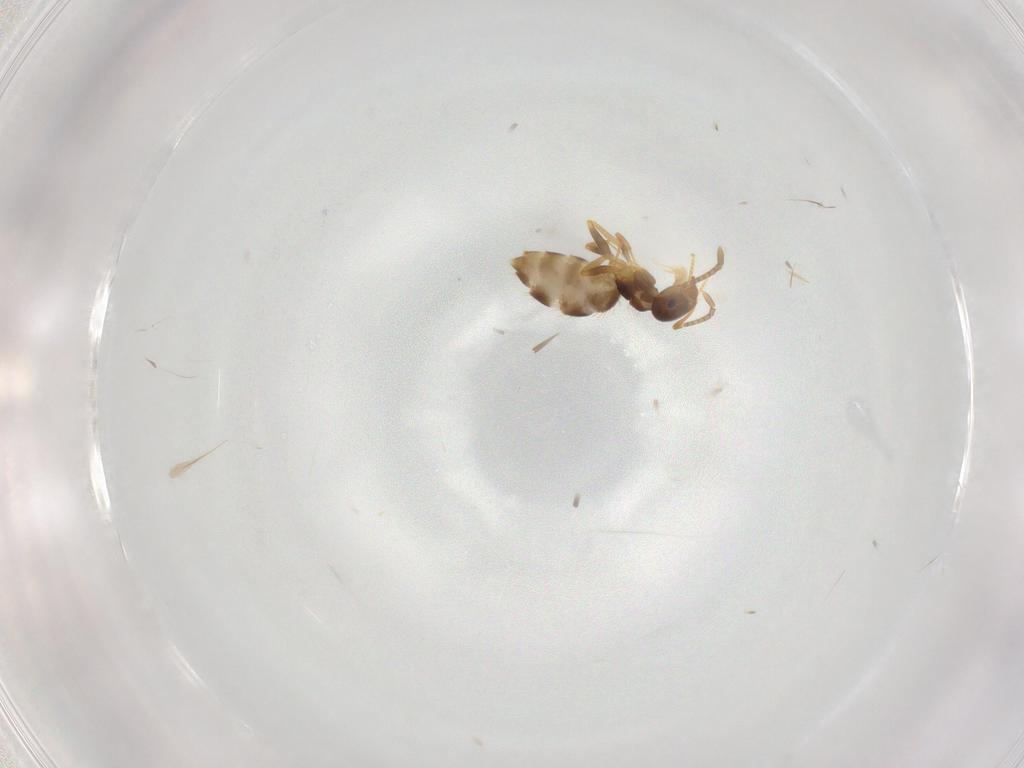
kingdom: Animalia
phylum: Arthropoda
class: Insecta
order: Hymenoptera
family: Formicidae
